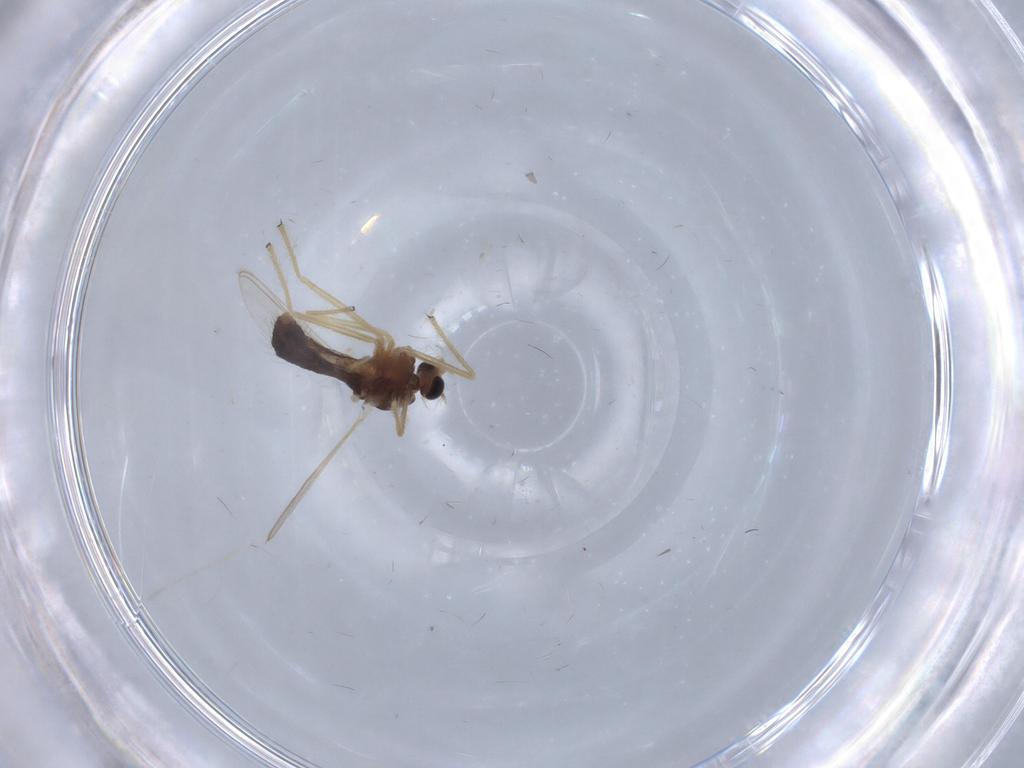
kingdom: Animalia
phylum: Arthropoda
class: Insecta
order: Diptera
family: Chironomidae
